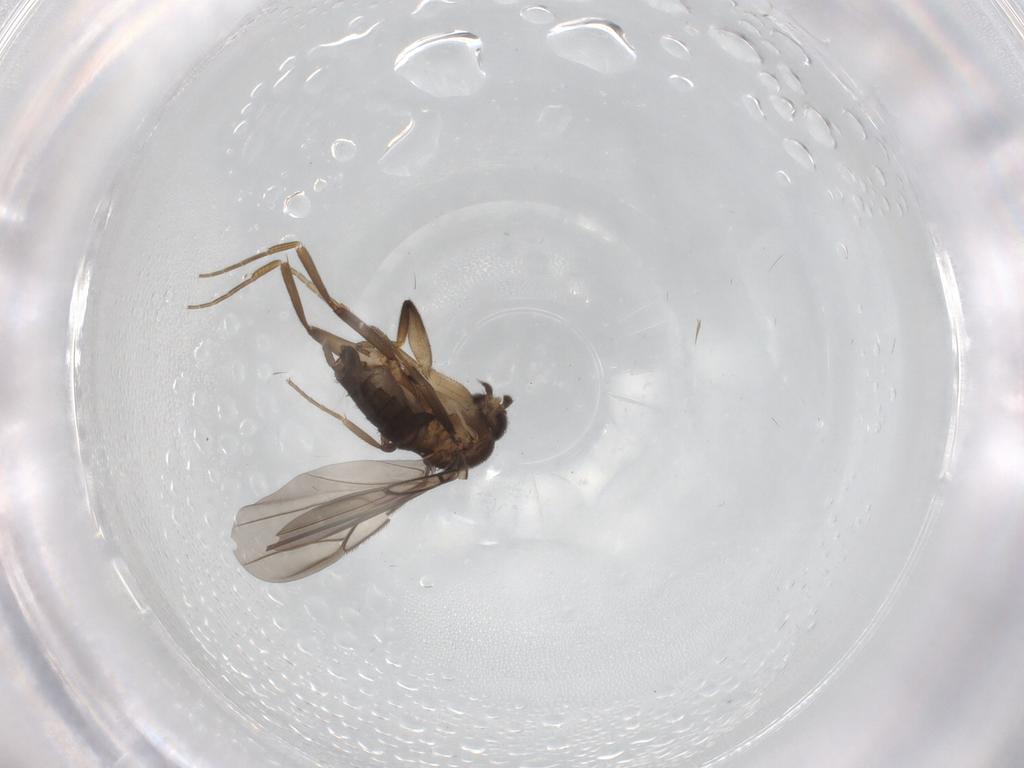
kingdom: Animalia
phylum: Arthropoda
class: Insecta
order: Diptera
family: Phoridae
